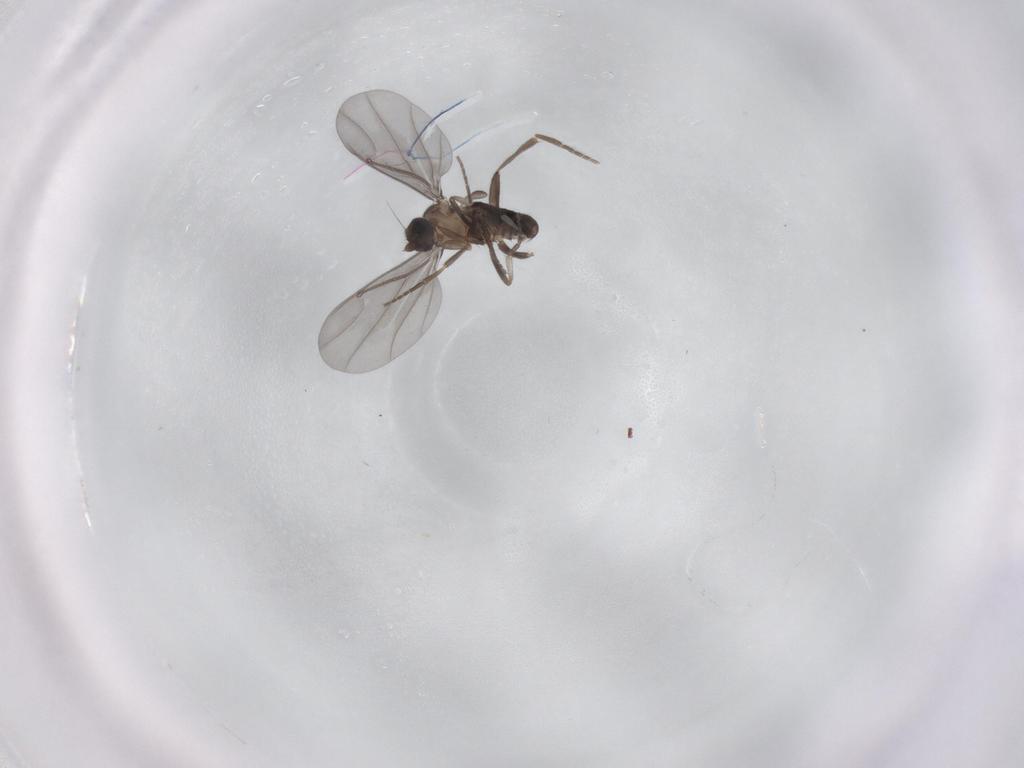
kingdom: Animalia
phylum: Arthropoda
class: Insecta
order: Diptera
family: Phoridae
